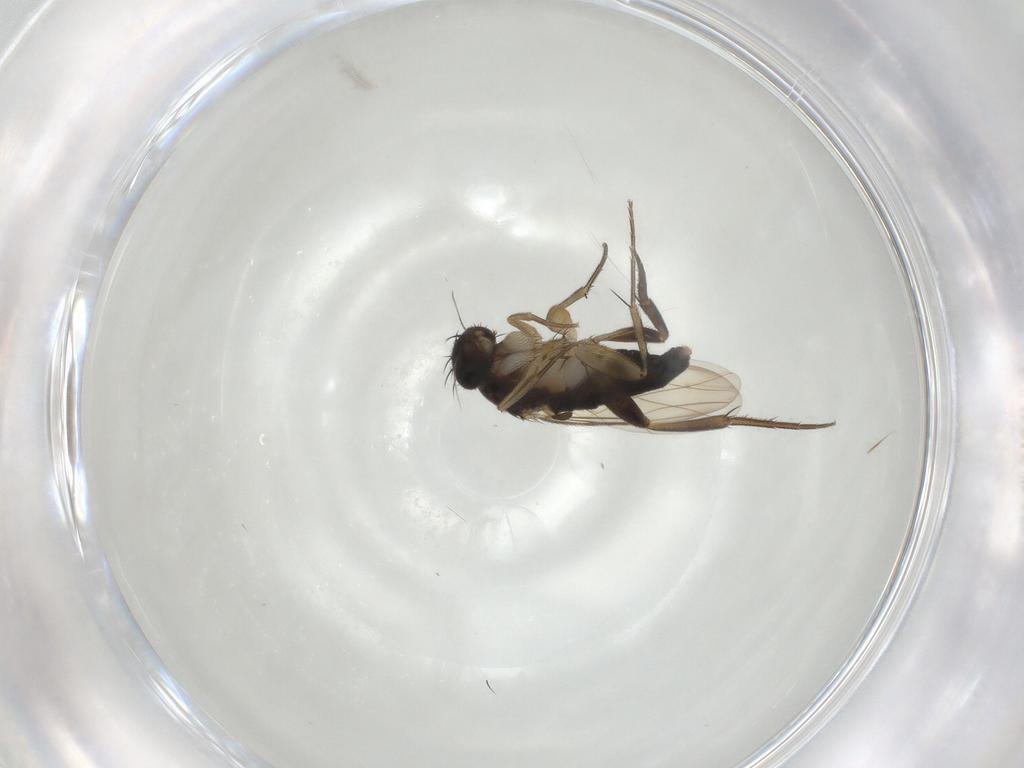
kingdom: Animalia
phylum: Arthropoda
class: Insecta
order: Diptera
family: Phoridae
